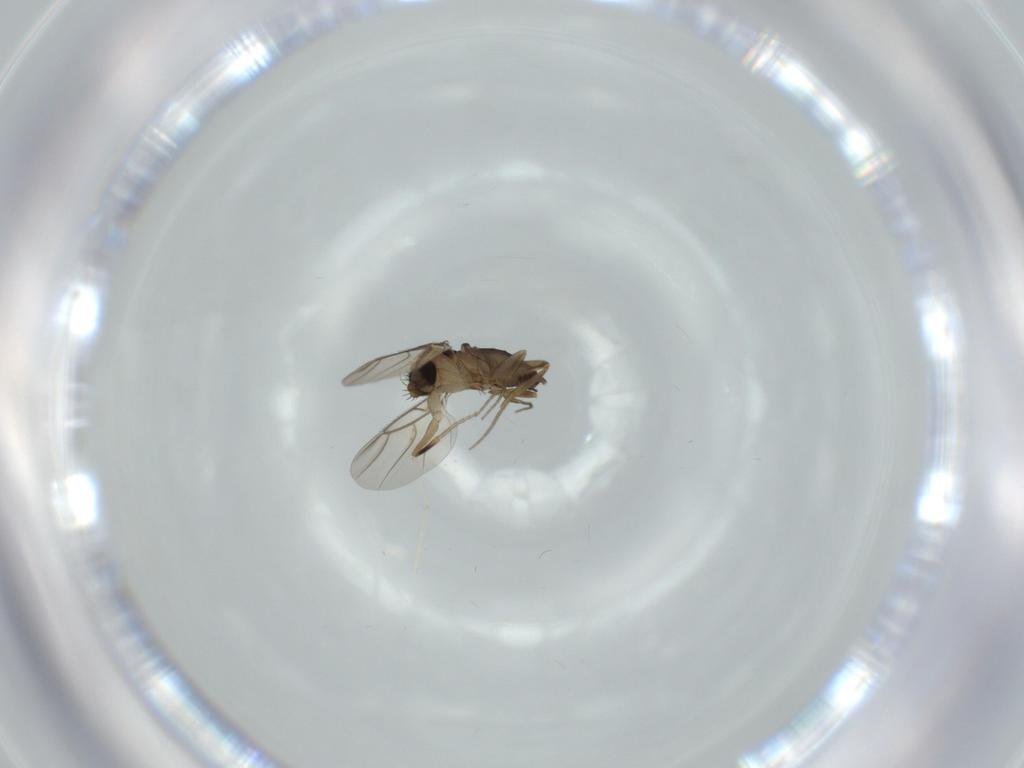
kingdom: Animalia
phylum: Arthropoda
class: Insecta
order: Diptera
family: Phoridae
